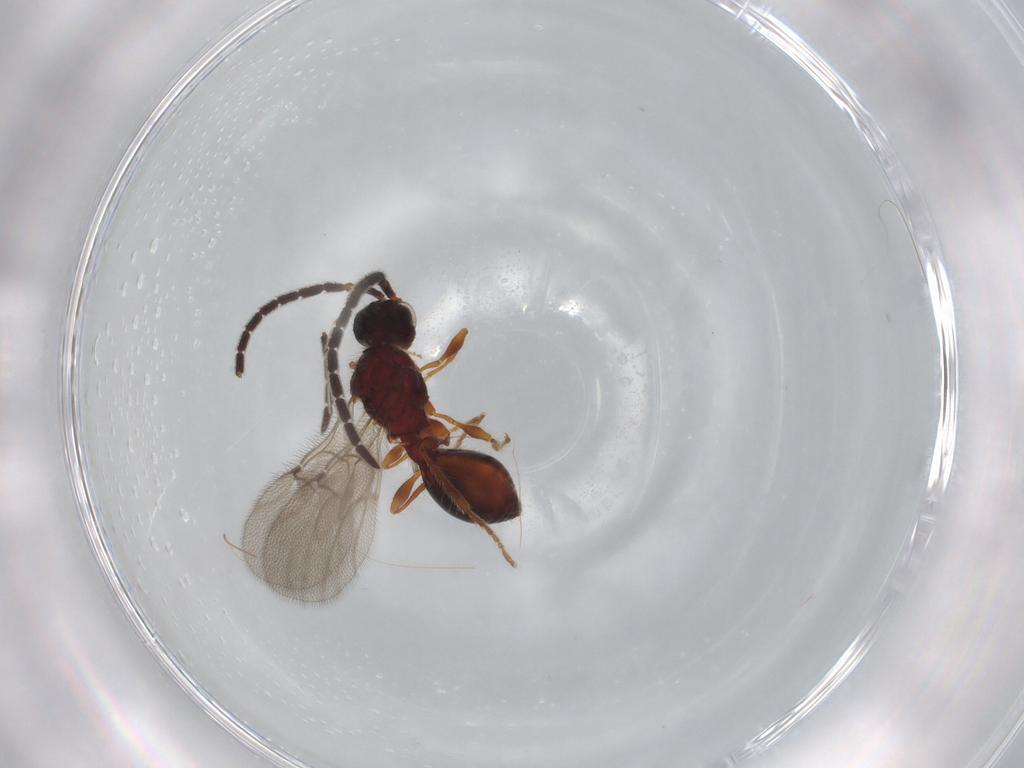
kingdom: Animalia
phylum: Arthropoda
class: Insecta
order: Hymenoptera
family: Diapriidae
